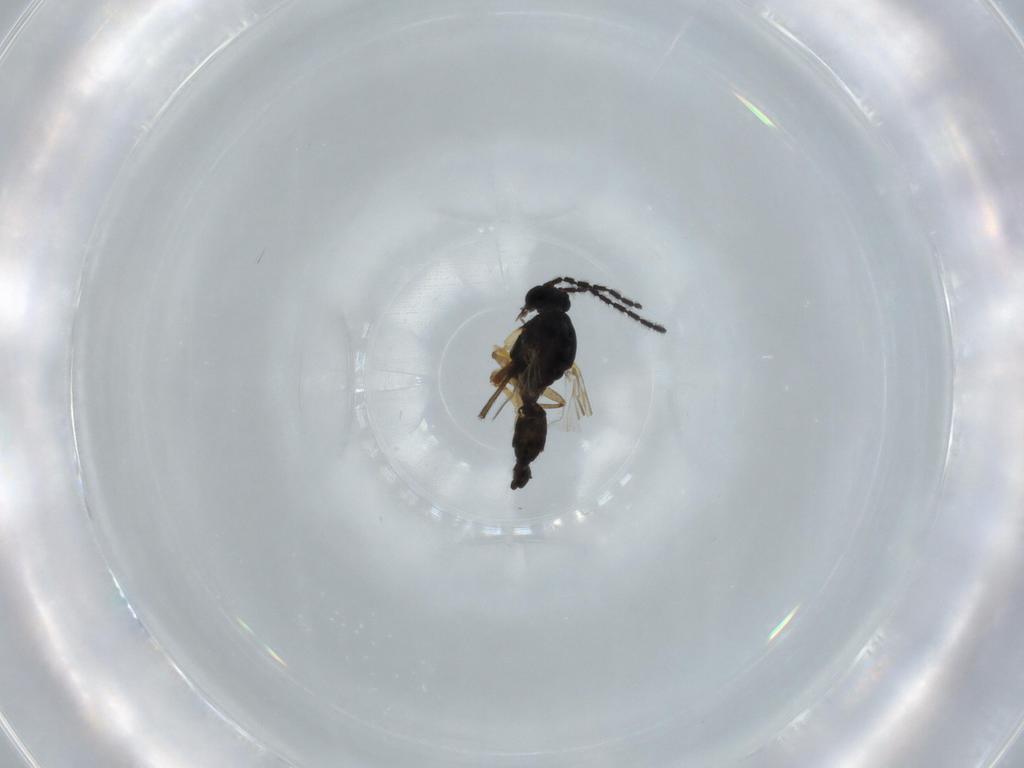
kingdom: Animalia
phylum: Arthropoda
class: Insecta
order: Diptera
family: Sciaridae
